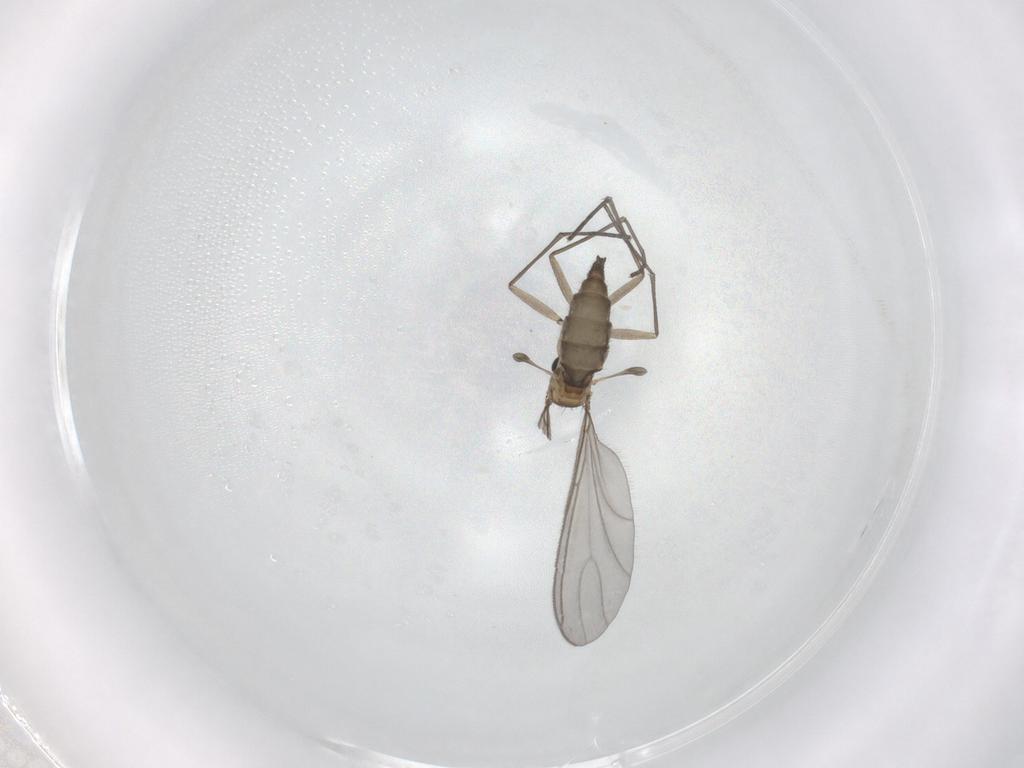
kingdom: Animalia
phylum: Arthropoda
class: Insecta
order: Diptera
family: Sciaridae
